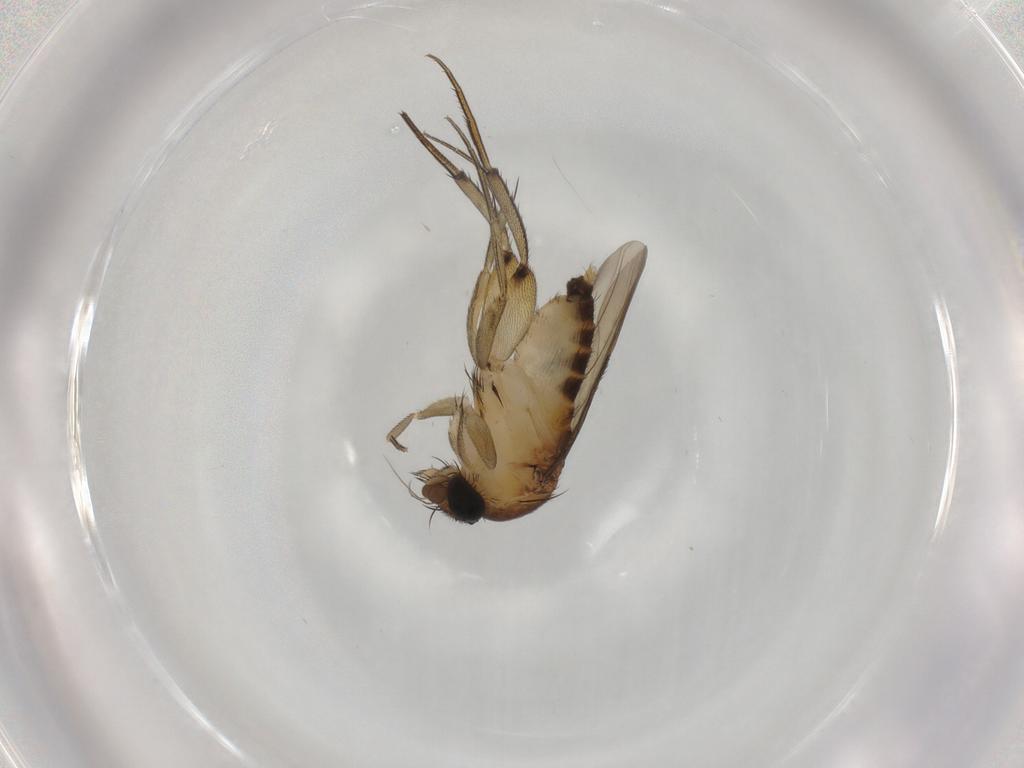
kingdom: Animalia
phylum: Arthropoda
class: Insecta
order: Diptera
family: Phoridae
